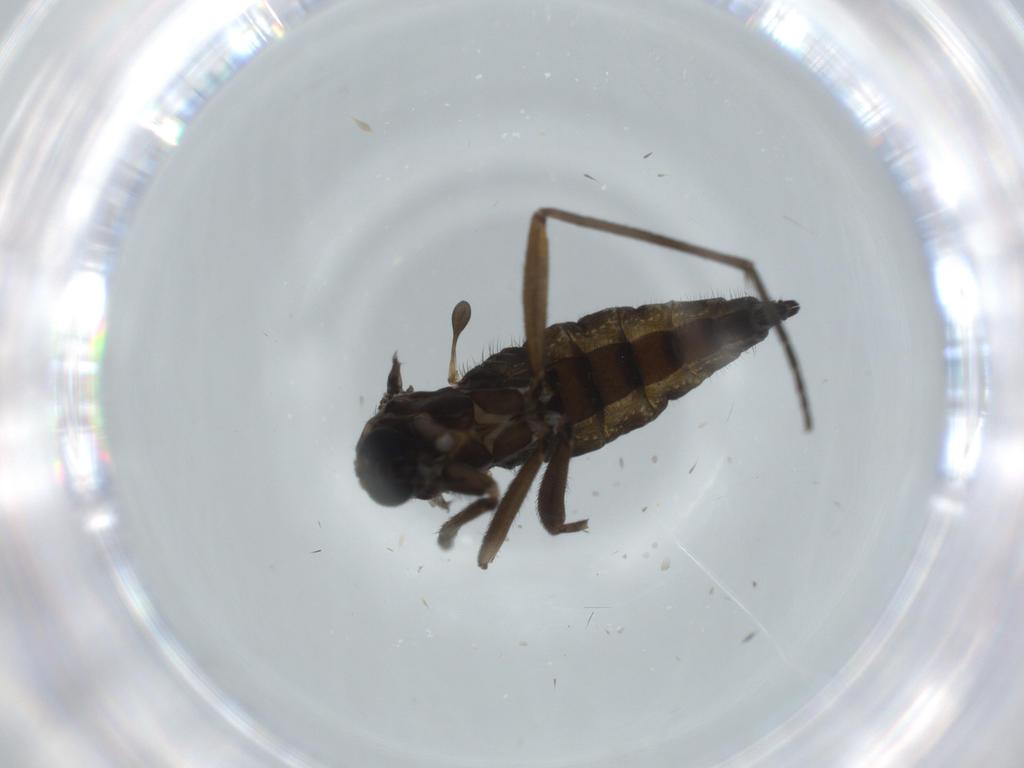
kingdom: Animalia
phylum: Arthropoda
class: Insecta
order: Diptera
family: Sciaridae
